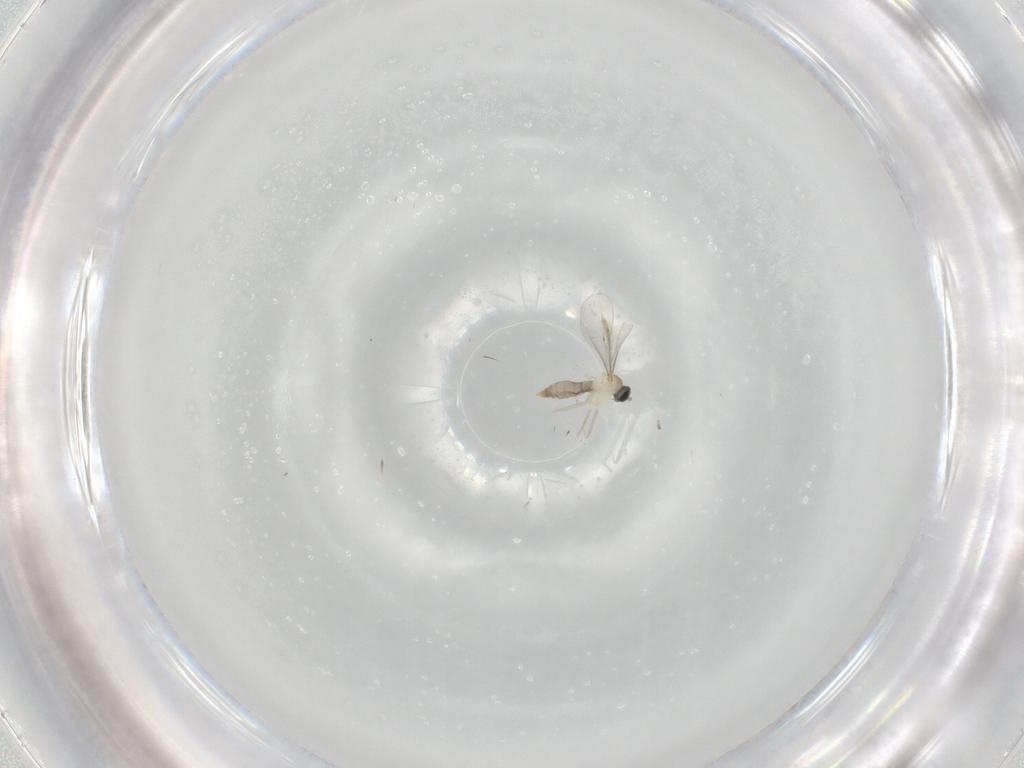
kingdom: Animalia
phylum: Arthropoda
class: Insecta
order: Diptera
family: Cecidomyiidae
